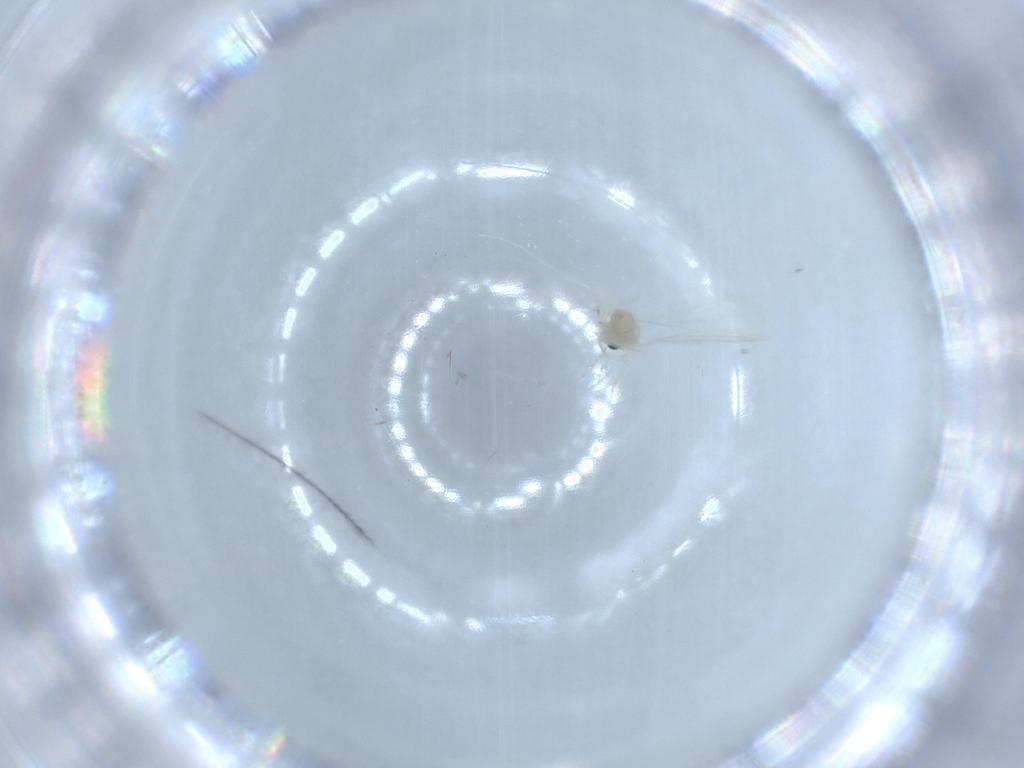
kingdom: Animalia
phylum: Arthropoda
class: Insecta
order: Diptera
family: Cecidomyiidae
